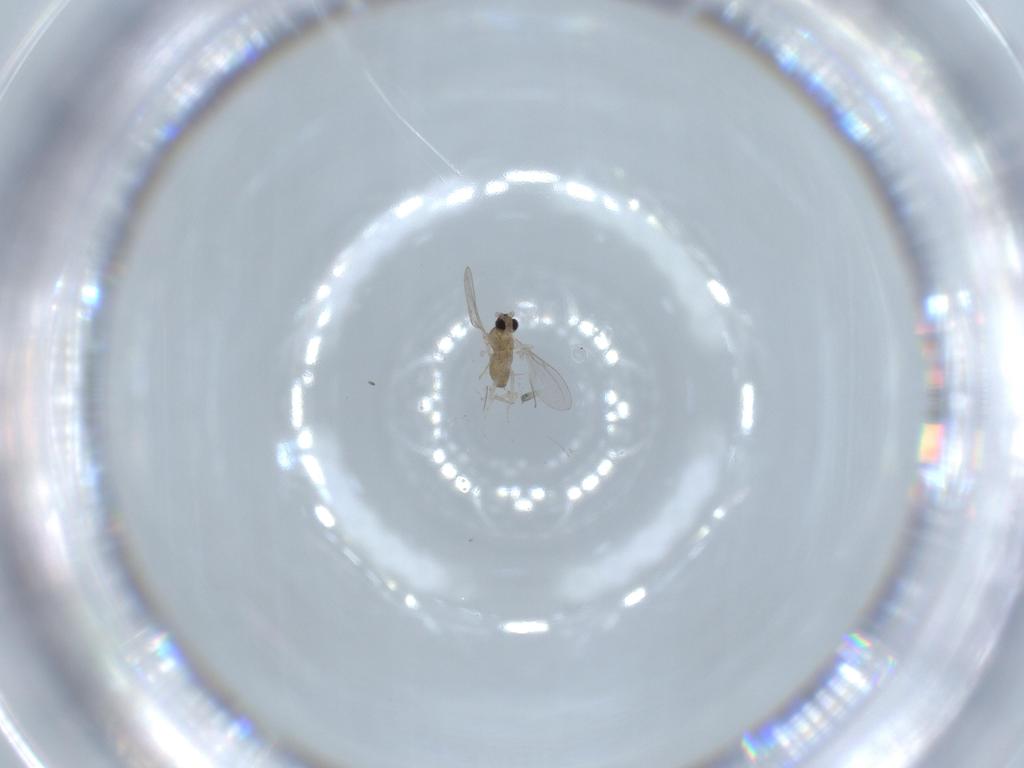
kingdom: Animalia
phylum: Arthropoda
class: Insecta
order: Diptera
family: Cecidomyiidae
